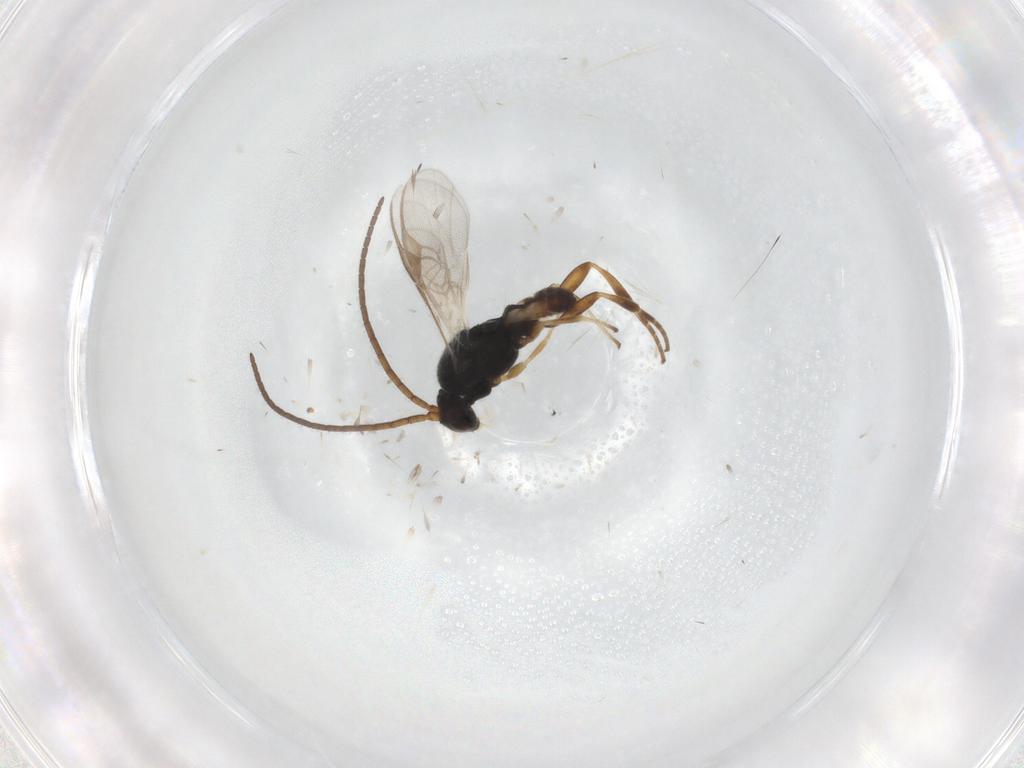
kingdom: Animalia
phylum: Arthropoda
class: Insecta
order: Hymenoptera
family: Braconidae
